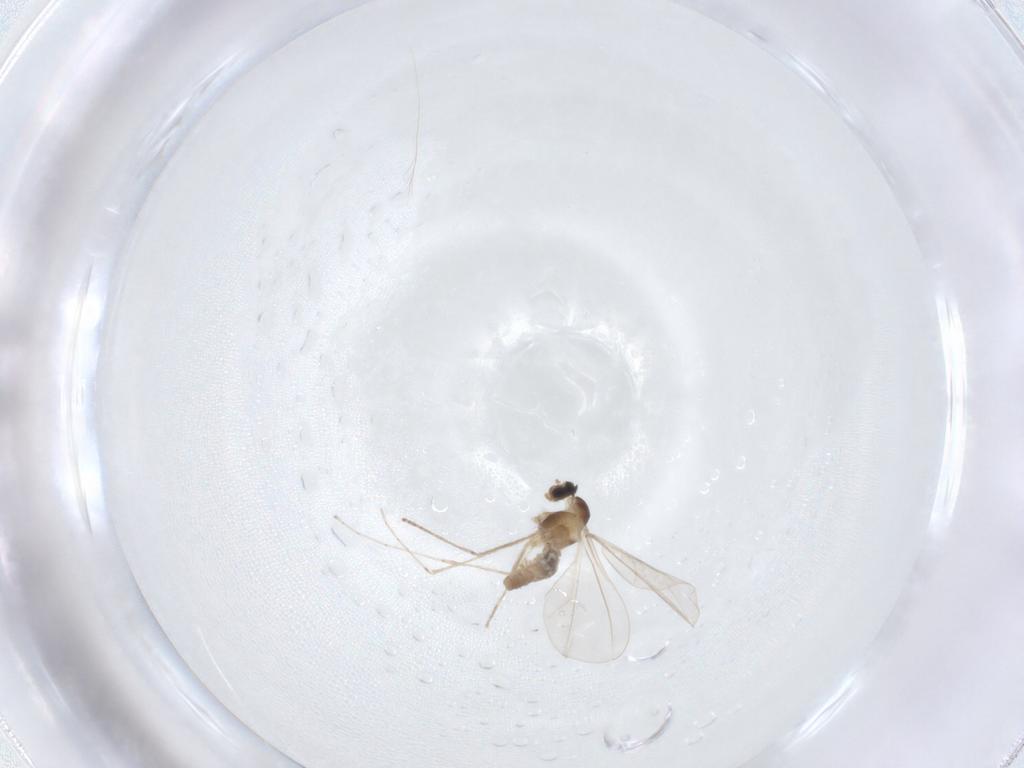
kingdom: Animalia
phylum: Arthropoda
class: Insecta
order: Diptera
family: Cecidomyiidae
